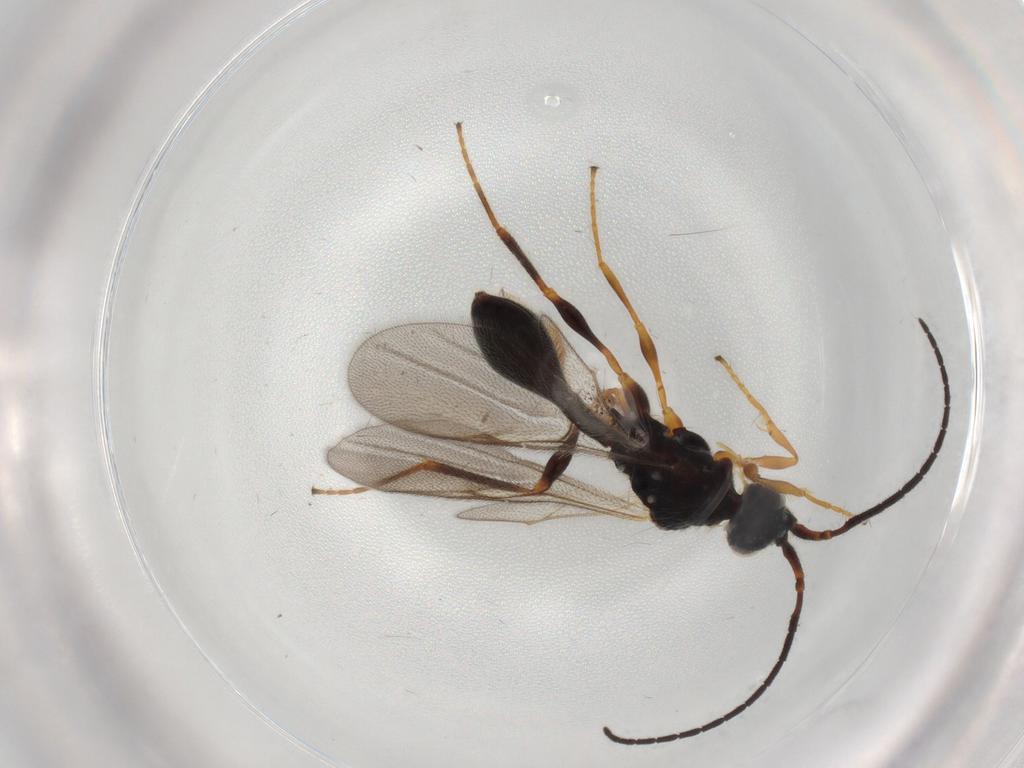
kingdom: Animalia
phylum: Arthropoda
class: Insecta
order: Hymenoptera
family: Diapriidae
